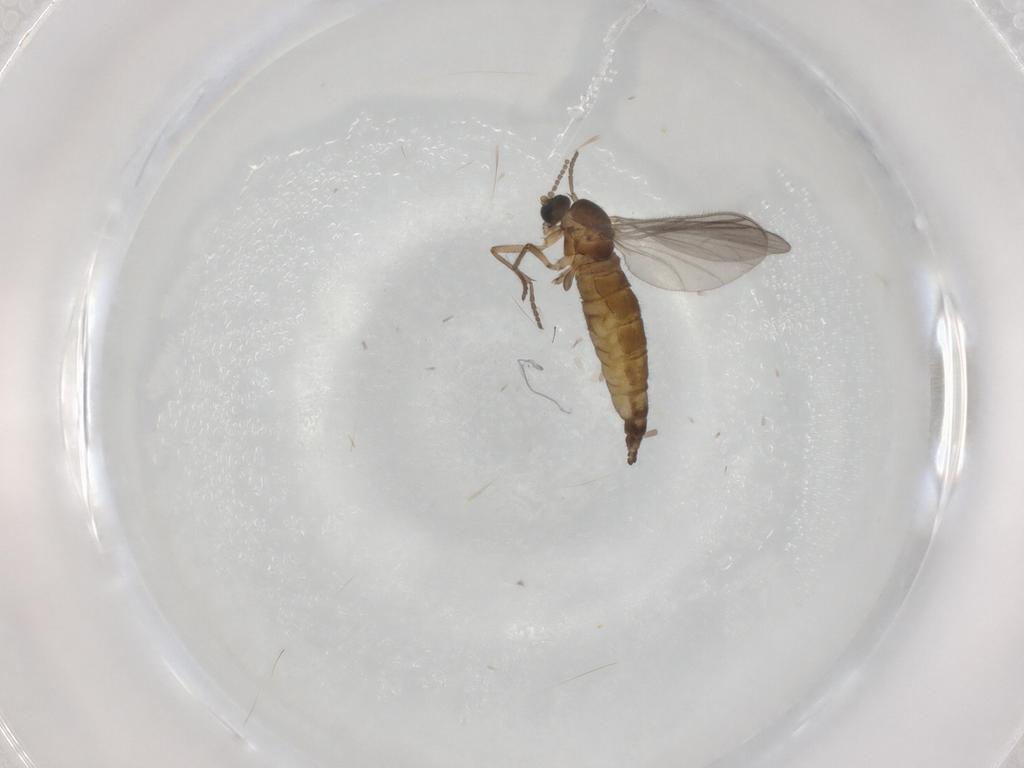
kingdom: Animalia
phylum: Arthropoda
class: Insecta
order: Diptera
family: Sciaridae
